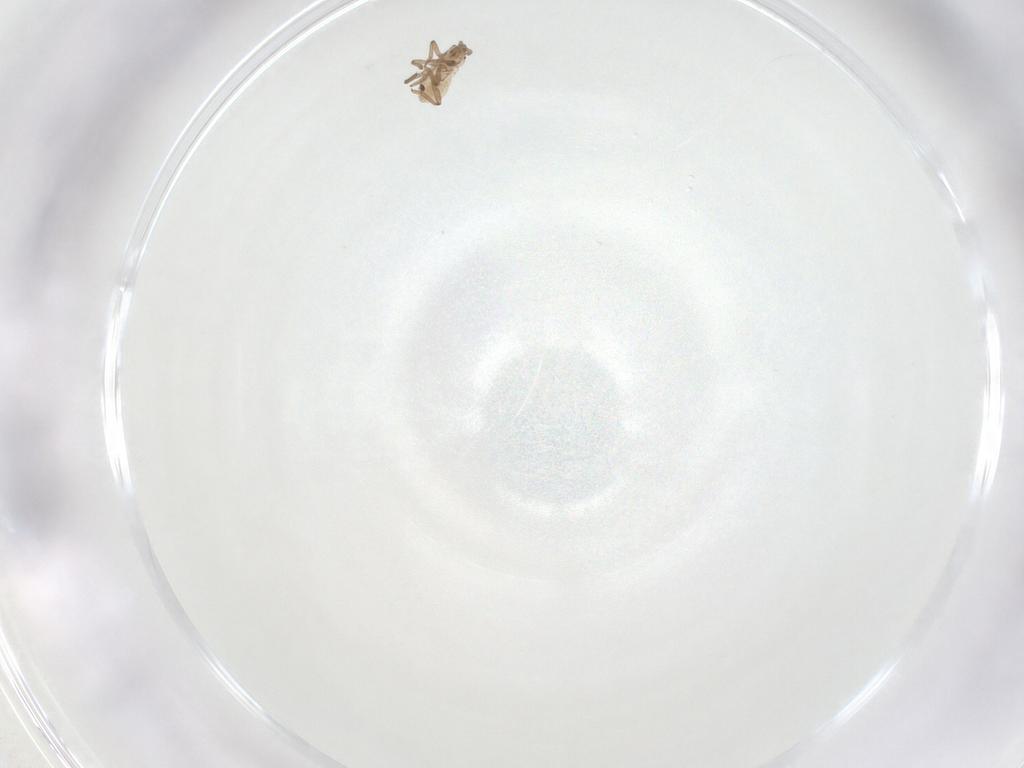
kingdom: Animalia
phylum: Arthropoda
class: Insecta
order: Hemiptera
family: Aphididae
